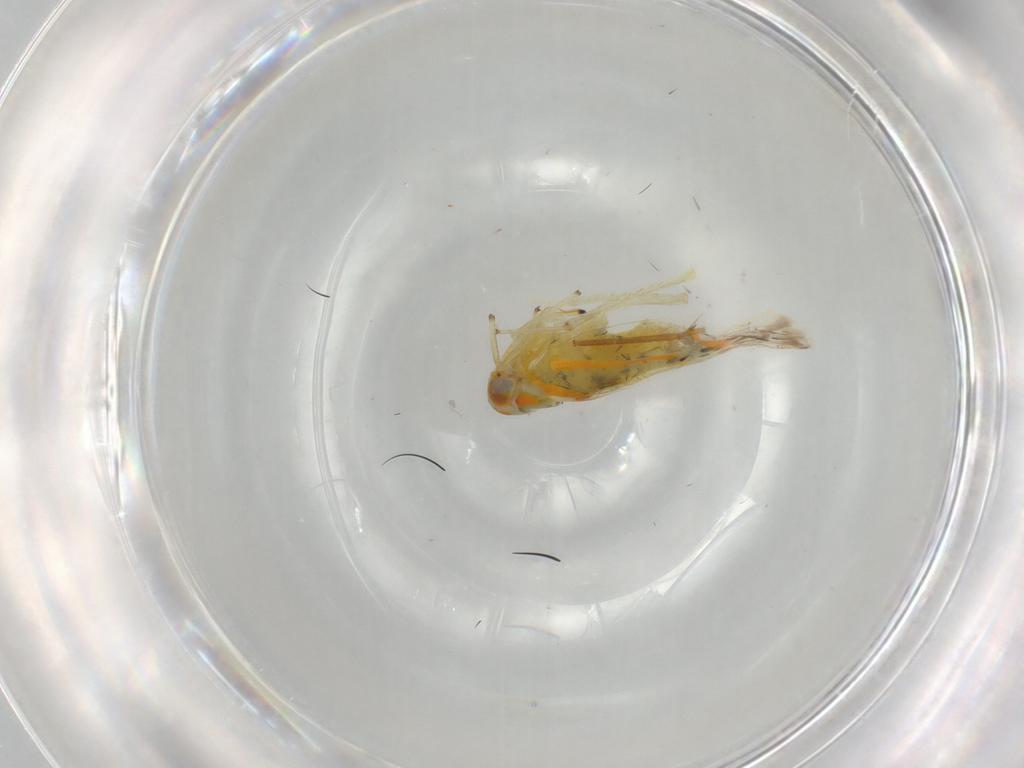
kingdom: Animalia
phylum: Arthropoda
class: Insecta
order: Hemiptera
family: Cicadellidae
